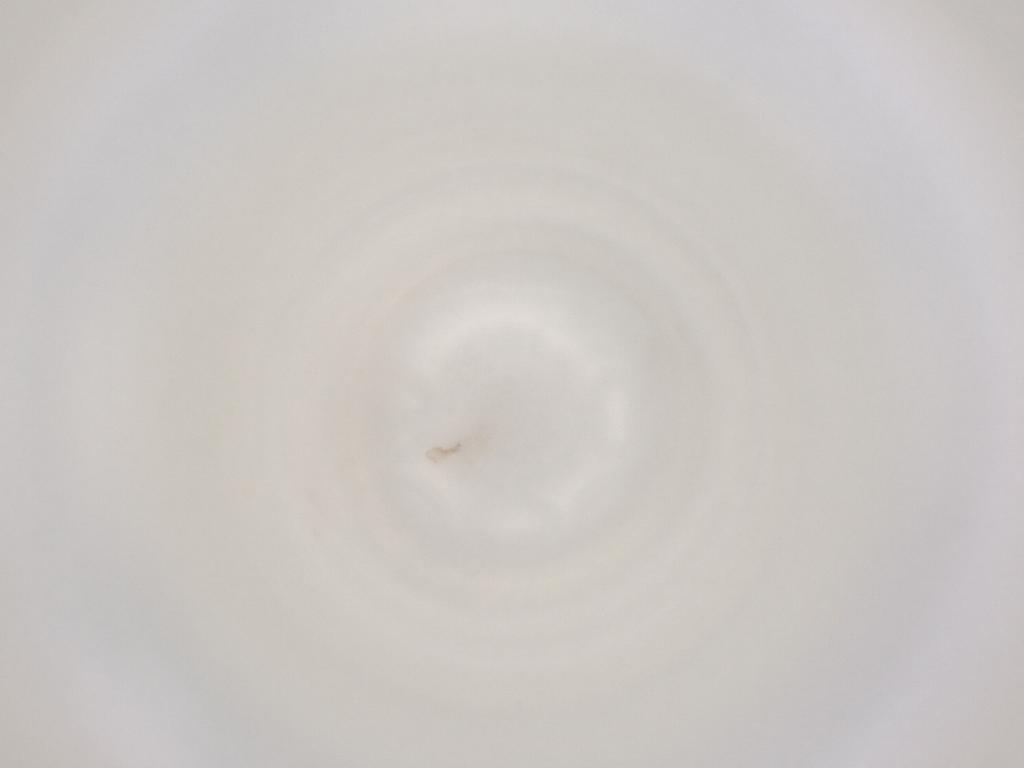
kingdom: Animalia
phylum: Arthropoda
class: Insecta
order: Diptera
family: Cecidomyiidae
